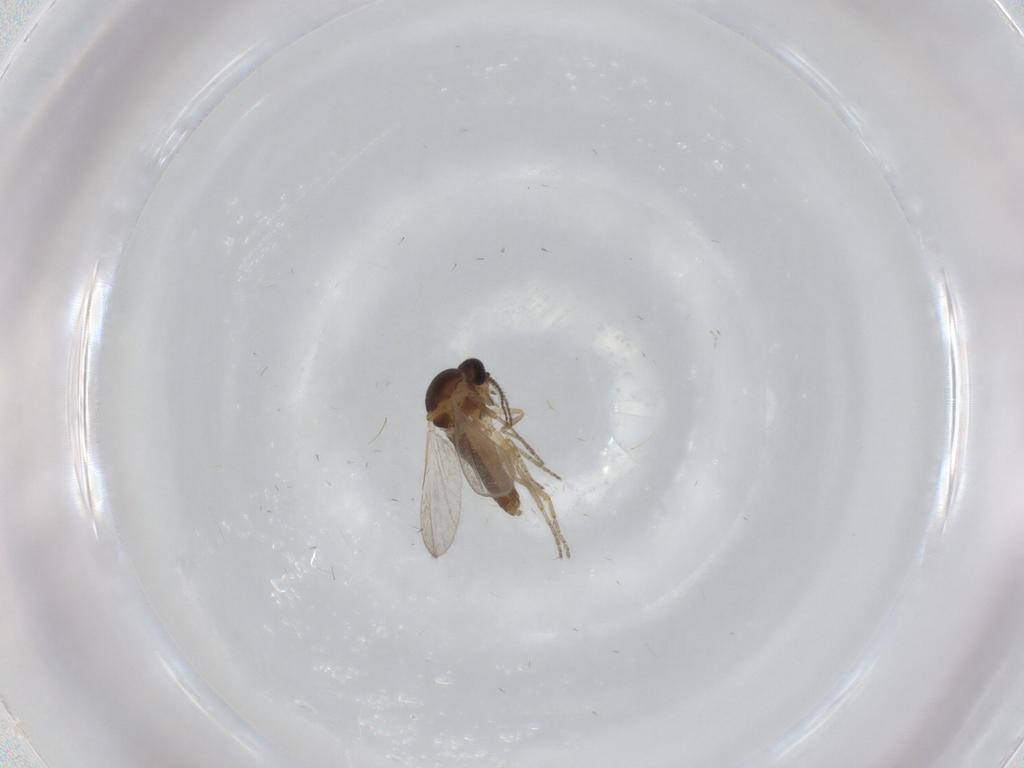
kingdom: Animalia
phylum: Arthropoda
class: Insecta
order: Diptera
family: Ceratopogonidae
